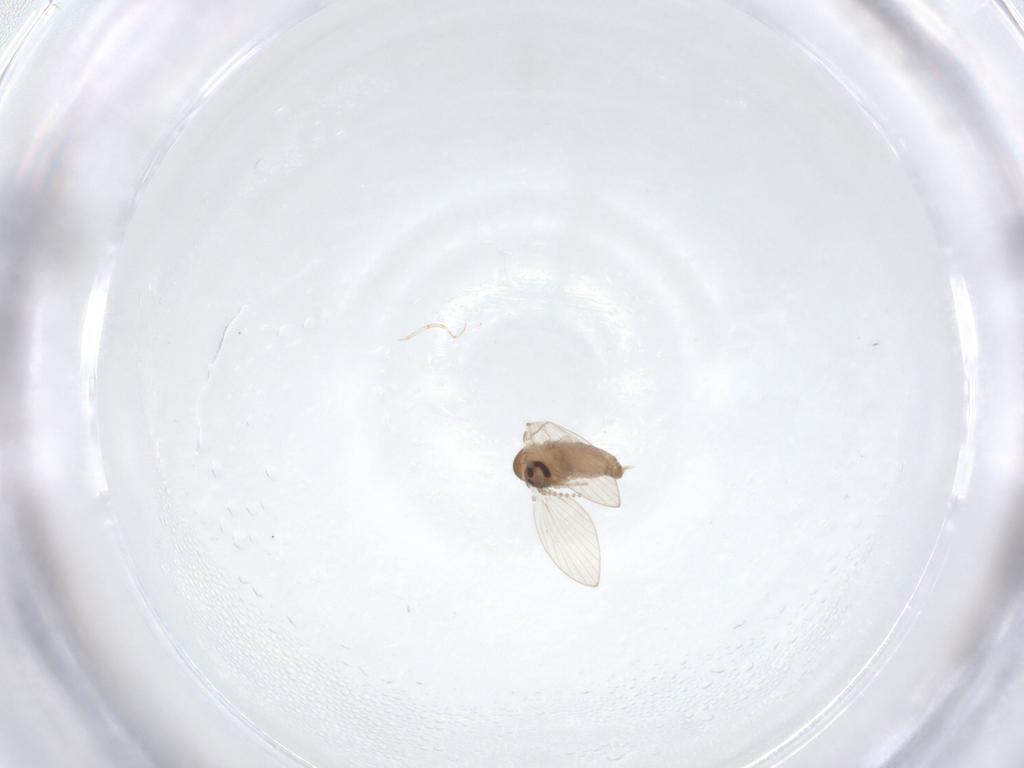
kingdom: Animalia
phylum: Arthropoda
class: Insecta
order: Diptera
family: Psychodidae
